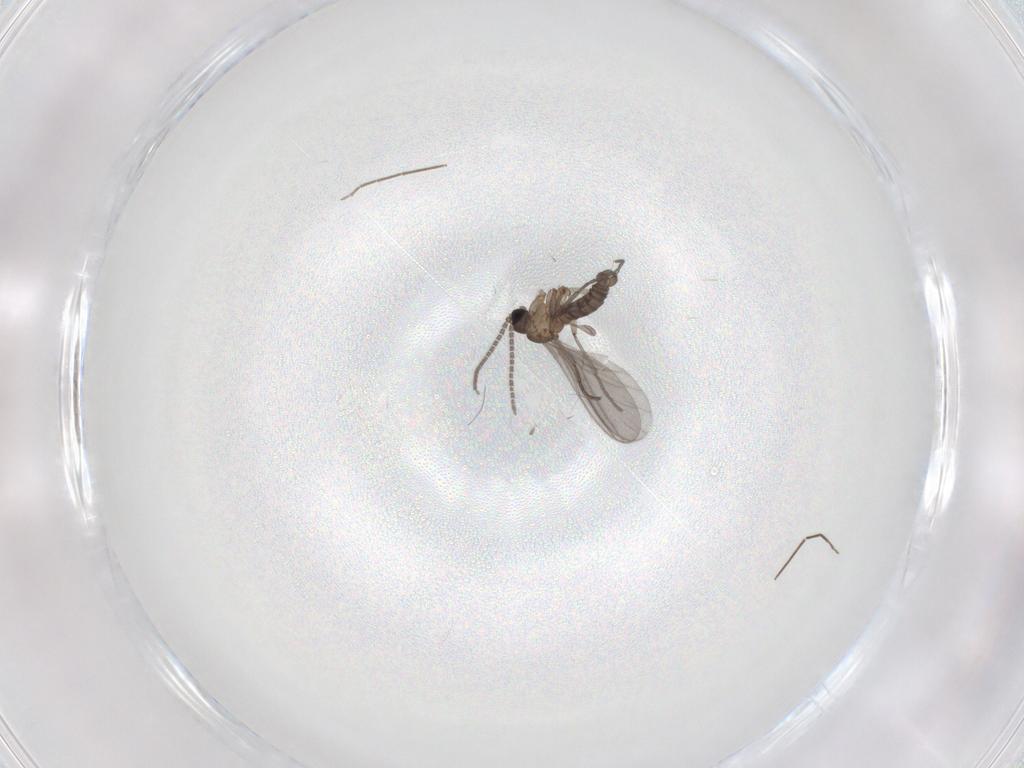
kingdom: Animalia
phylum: Arthropoda
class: Insecta
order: Diptera
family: Sciaridae
